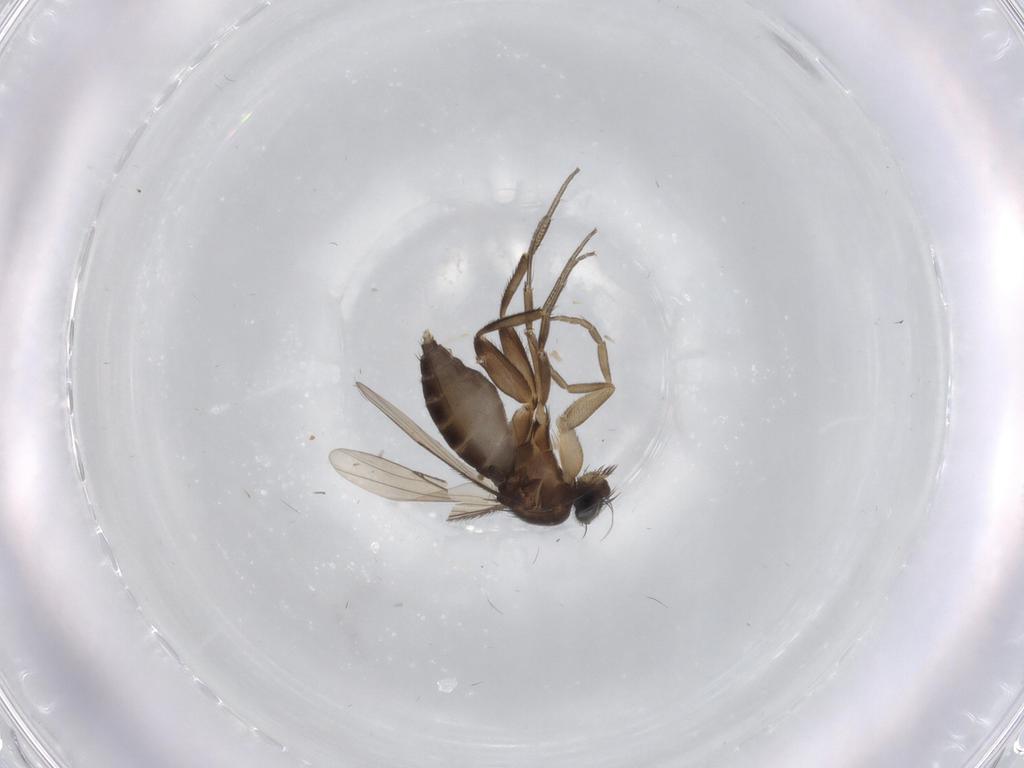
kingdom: Animalia
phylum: Arthropoda
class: Insecta
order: Diptera
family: Phoridae
